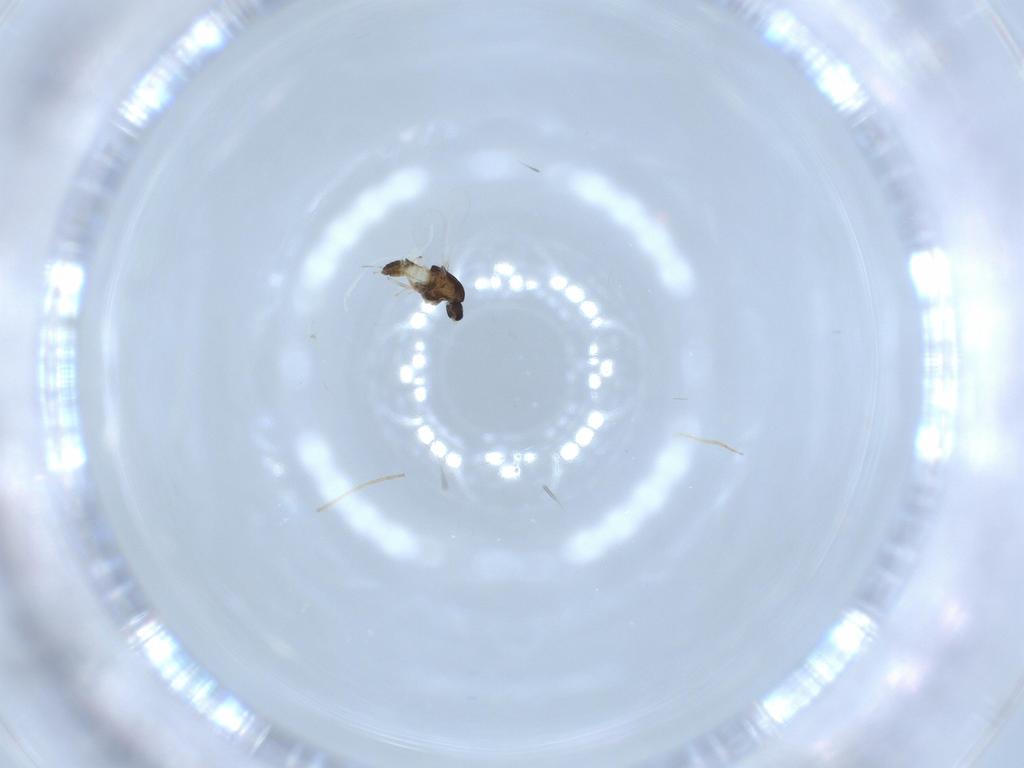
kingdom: Animalia
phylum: Arthropoda
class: Insecta
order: Diptera
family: Chironomidae
